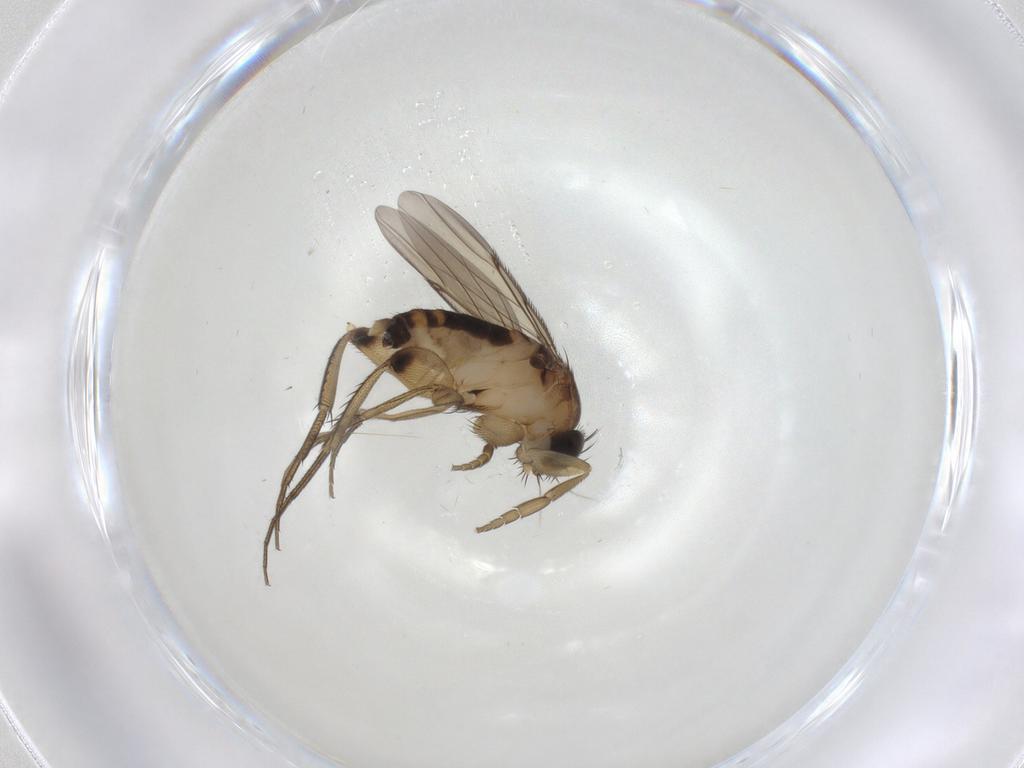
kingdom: Animalia
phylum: Arthropoda
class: Insecta
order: Diptera
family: Phoridae
